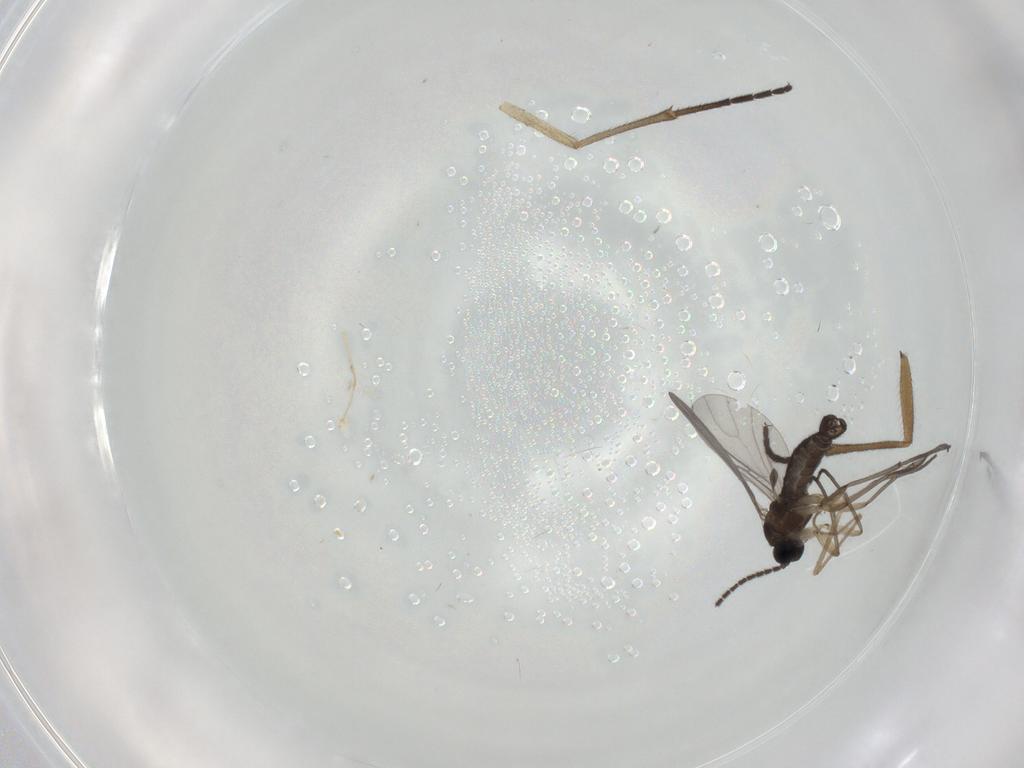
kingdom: Animalia
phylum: Arthropoda
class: Insecta
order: Diptera
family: Sciaridae
